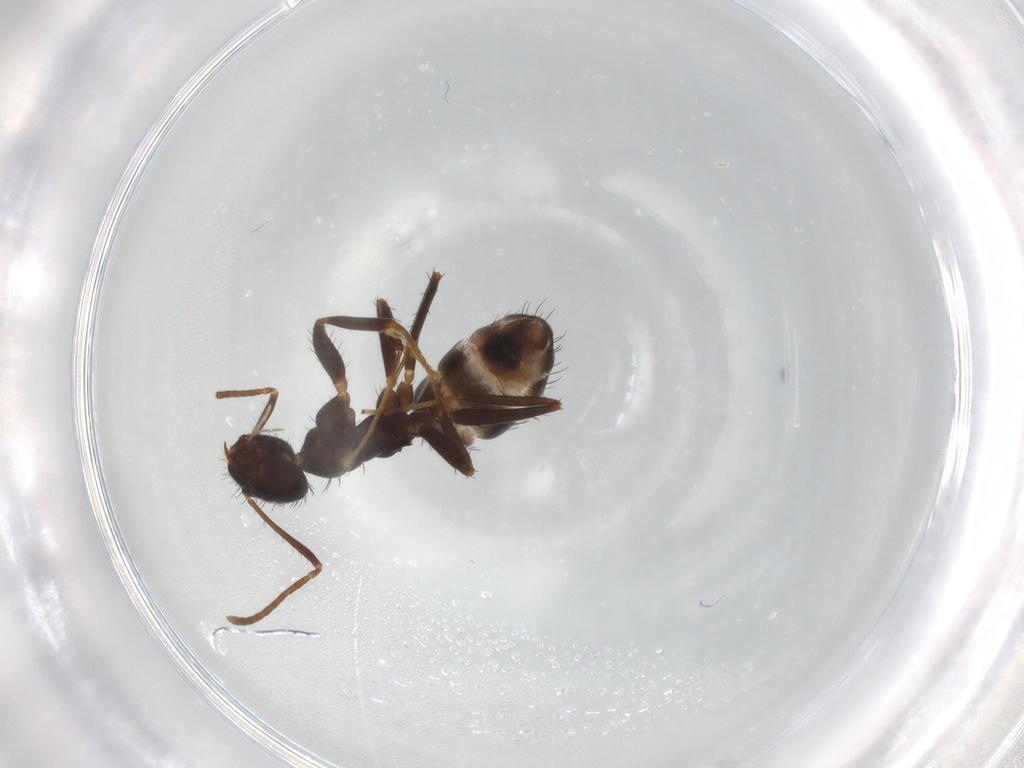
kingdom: Animalia
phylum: Arthropoda
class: Insecta
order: Hymenoptera
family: Formicidae
